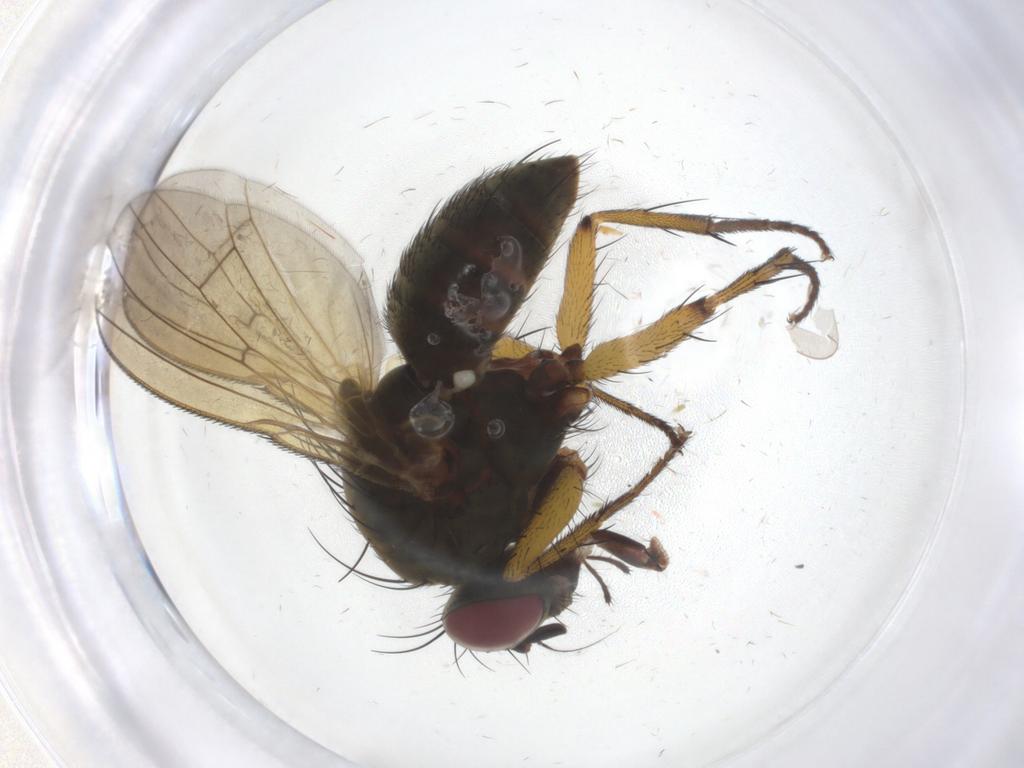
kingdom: Animalia
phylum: Arthropoda
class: Insecta
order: Diptera
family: Muscidae
